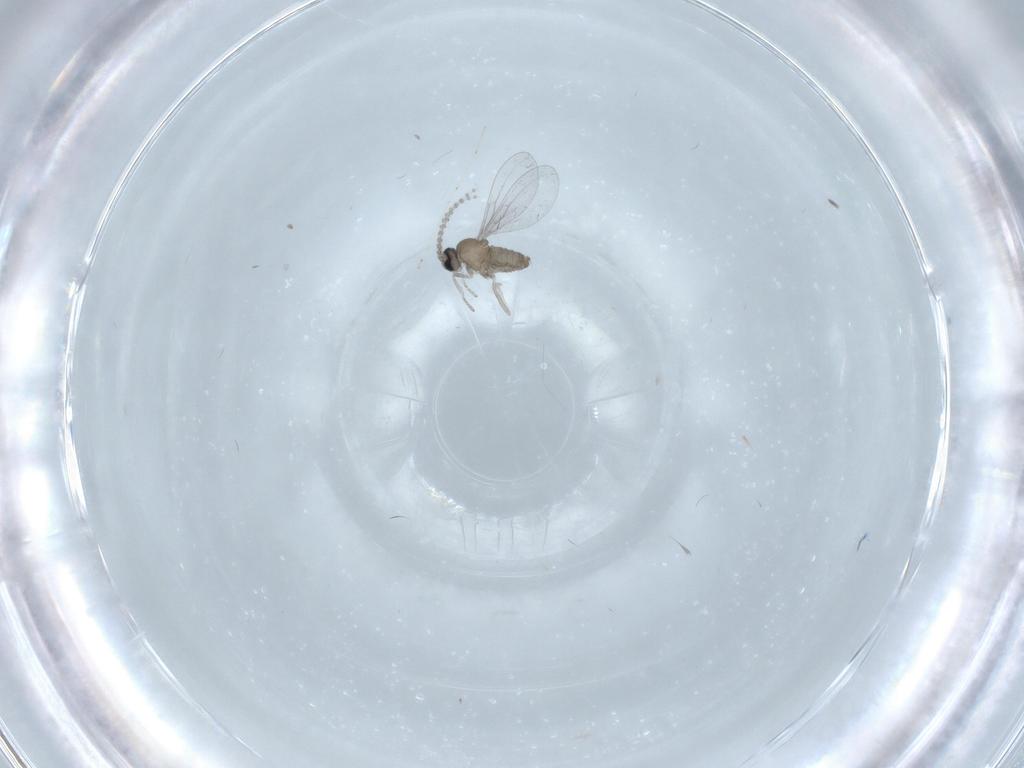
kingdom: Animalia
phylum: Arthropoda
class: Insecta
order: Diptera
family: Cecidomyiidae
